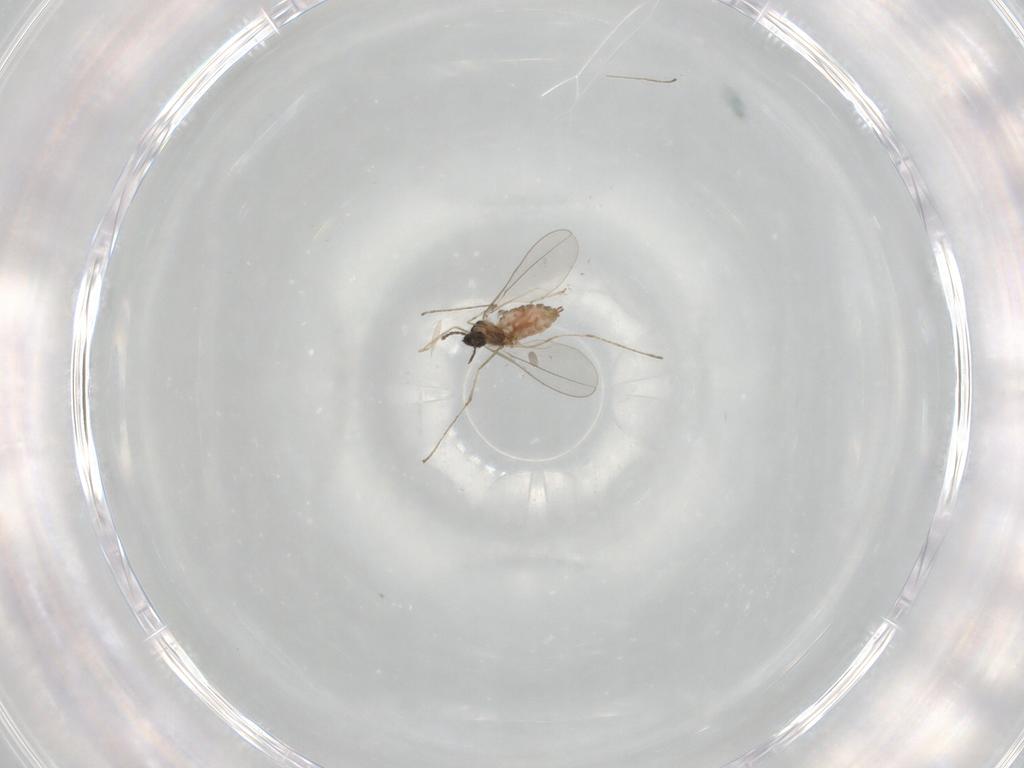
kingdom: Animalia
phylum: Arthropoda
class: Insecta
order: Diptera
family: Cecidomyiidae
